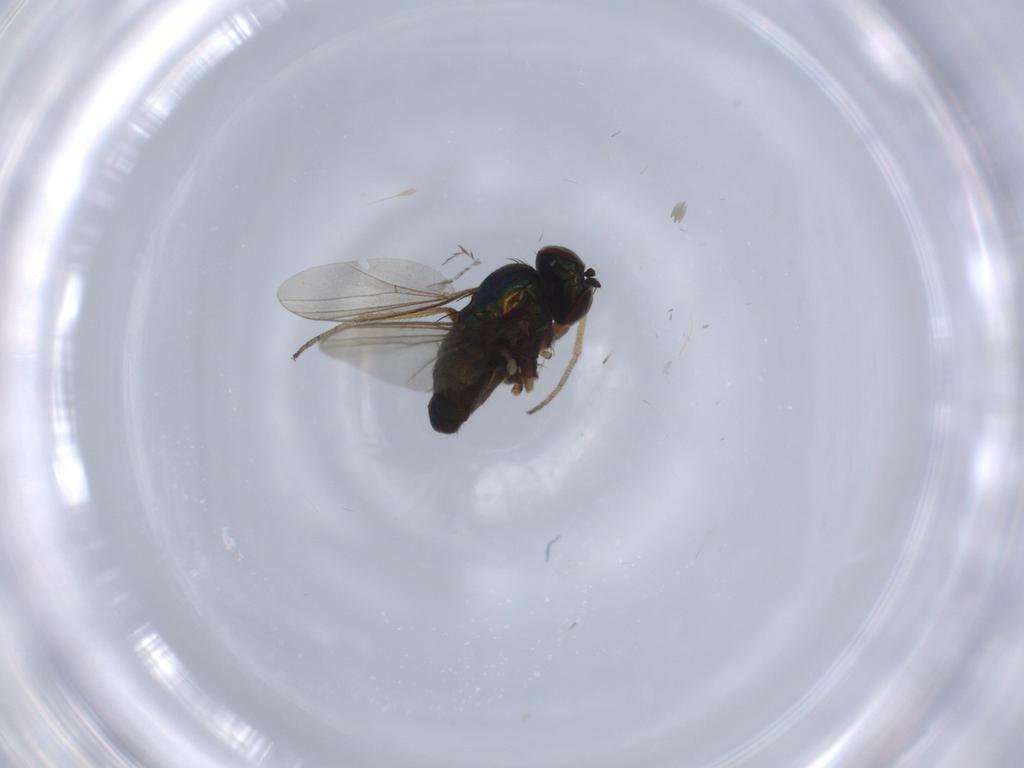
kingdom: Animalia
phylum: Arthropoda
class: Insecta
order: Diptera
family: Dolichopodidae
